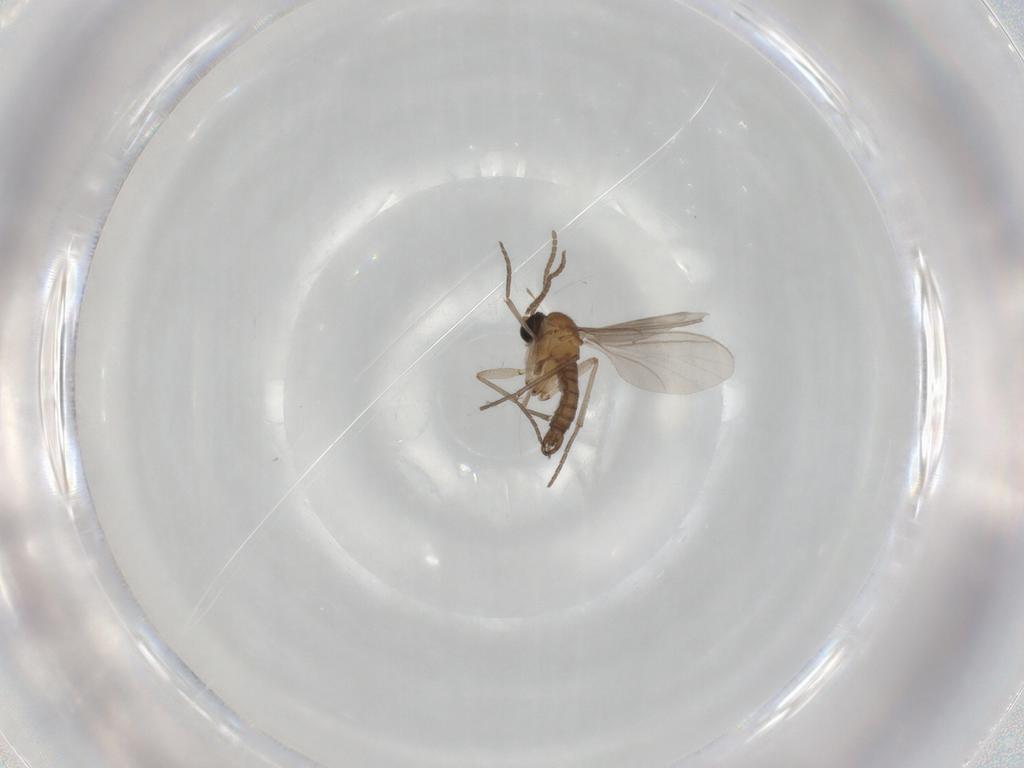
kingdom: Animalia
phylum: Arthropoda
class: Insecta
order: Diptera
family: Sciaridae
